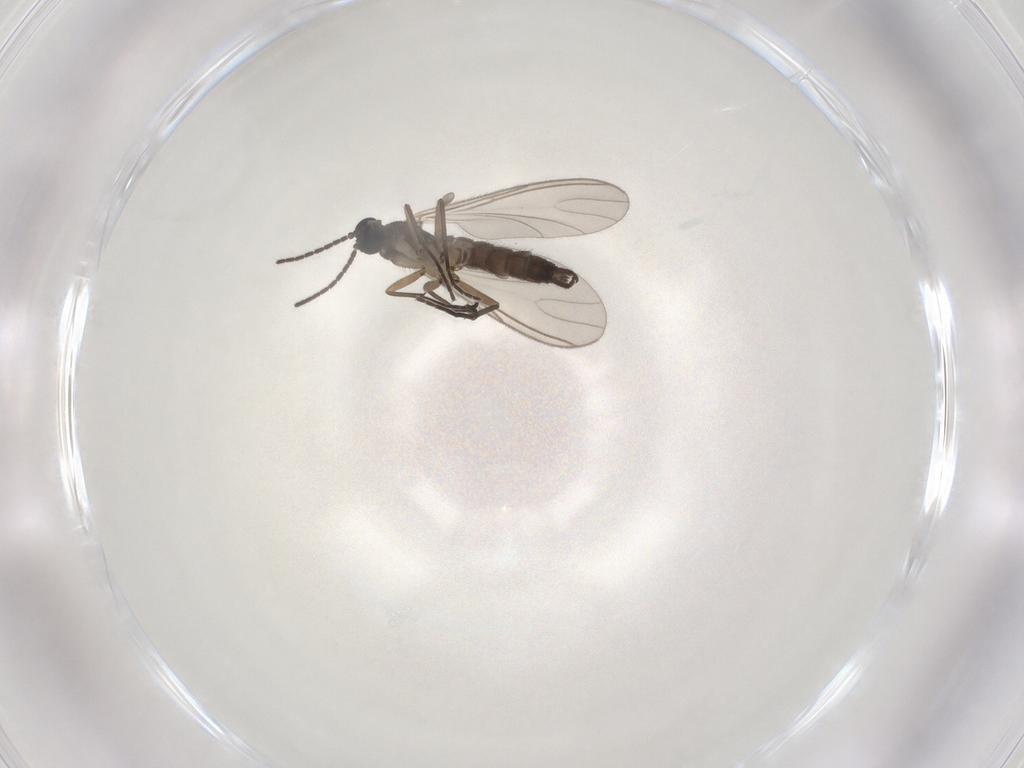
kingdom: Animalia
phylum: Arthropoda
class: Insecta
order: Diptera
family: Sciaridae
